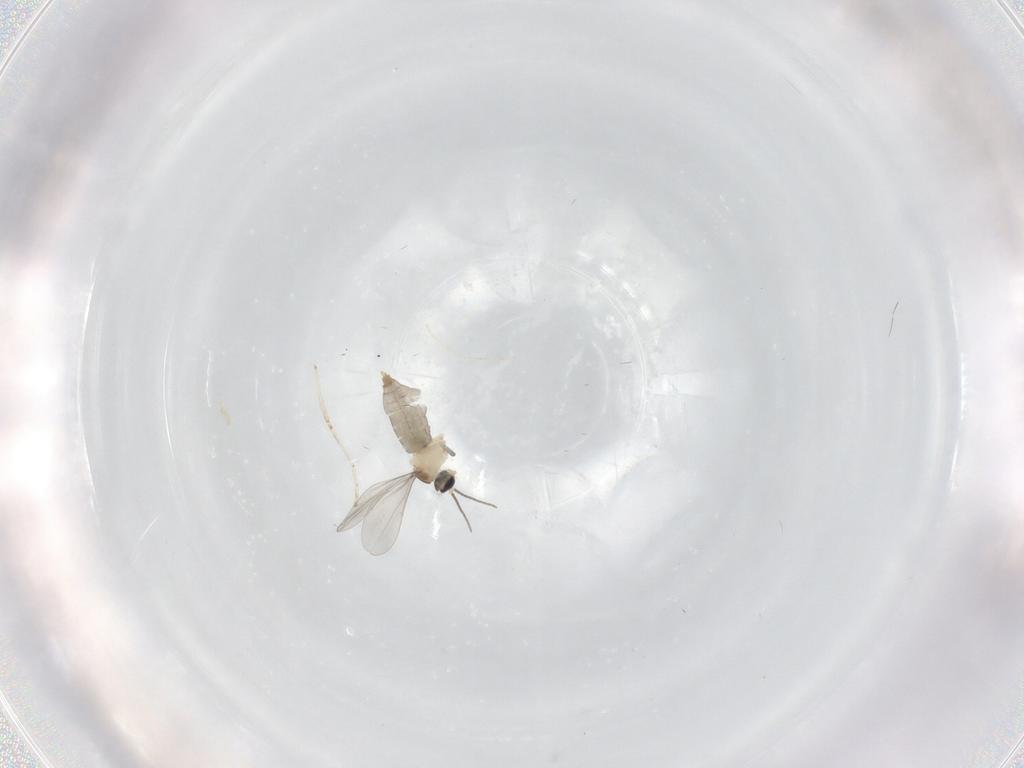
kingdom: Animalia
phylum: Arthropoda
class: Insecta
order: Diptera
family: Cecidomyiidae
